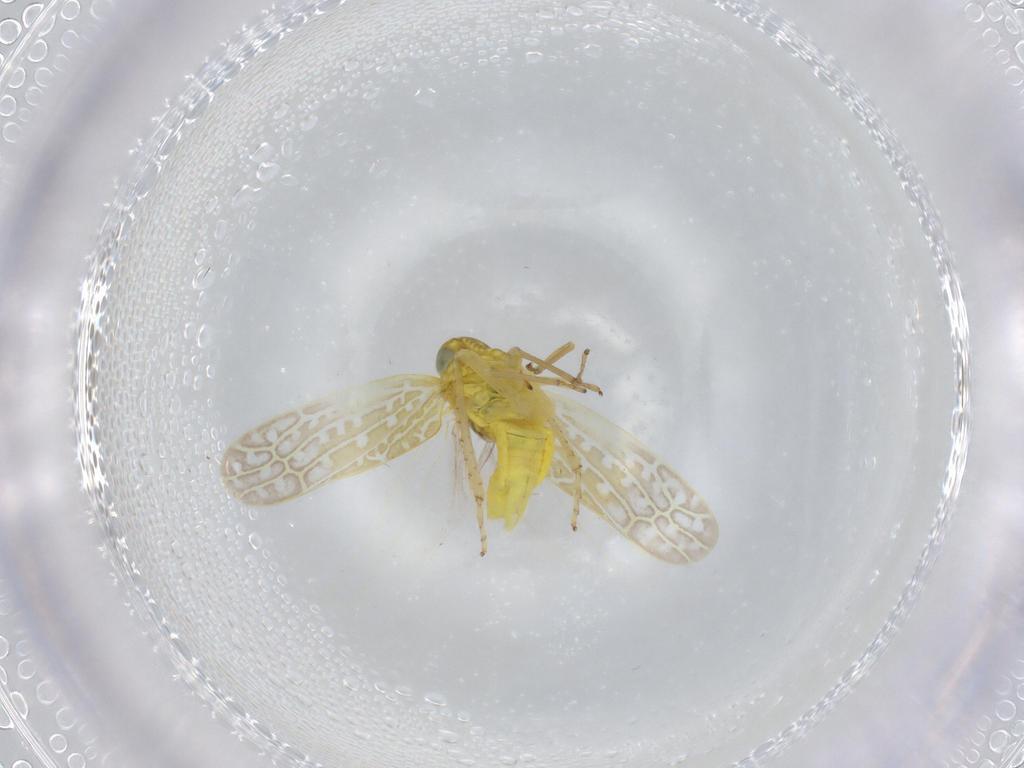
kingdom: Animalia
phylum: Arthropoda
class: Insecta
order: Hemiptera
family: Cicadellidae
